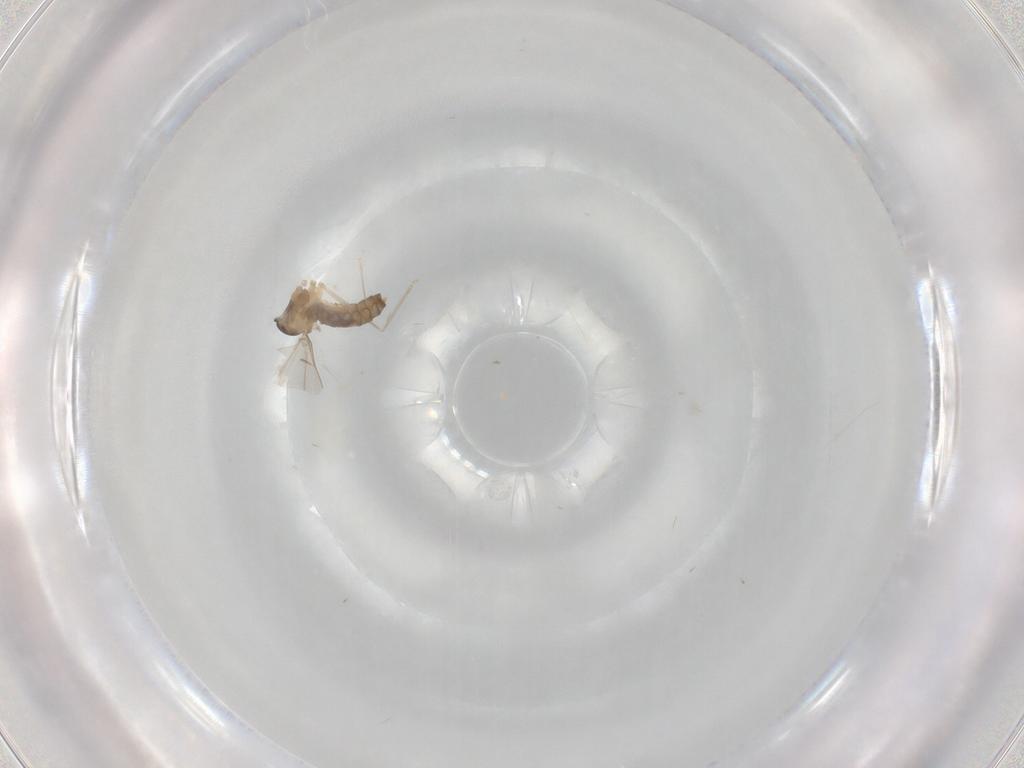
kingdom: Animalia
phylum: Arthropoda
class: Insecta
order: Diptera
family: Cecidomyiidae
